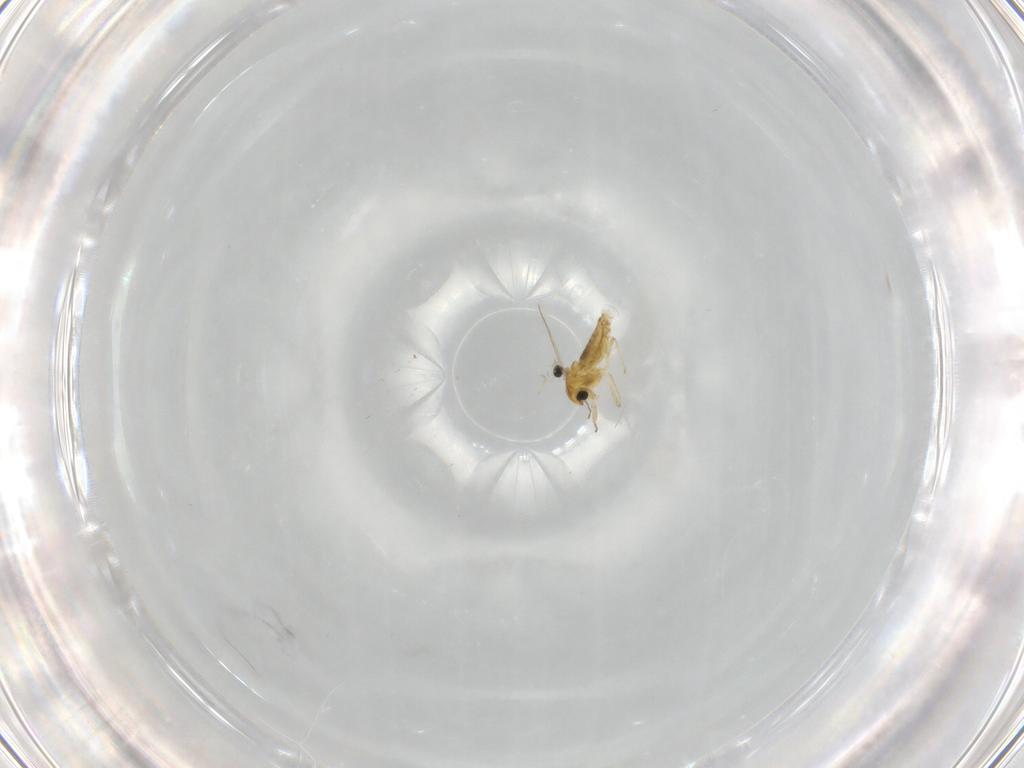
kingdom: Animalia
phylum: Arthropoda
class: Insecta
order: Diptera
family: Chironomidae
